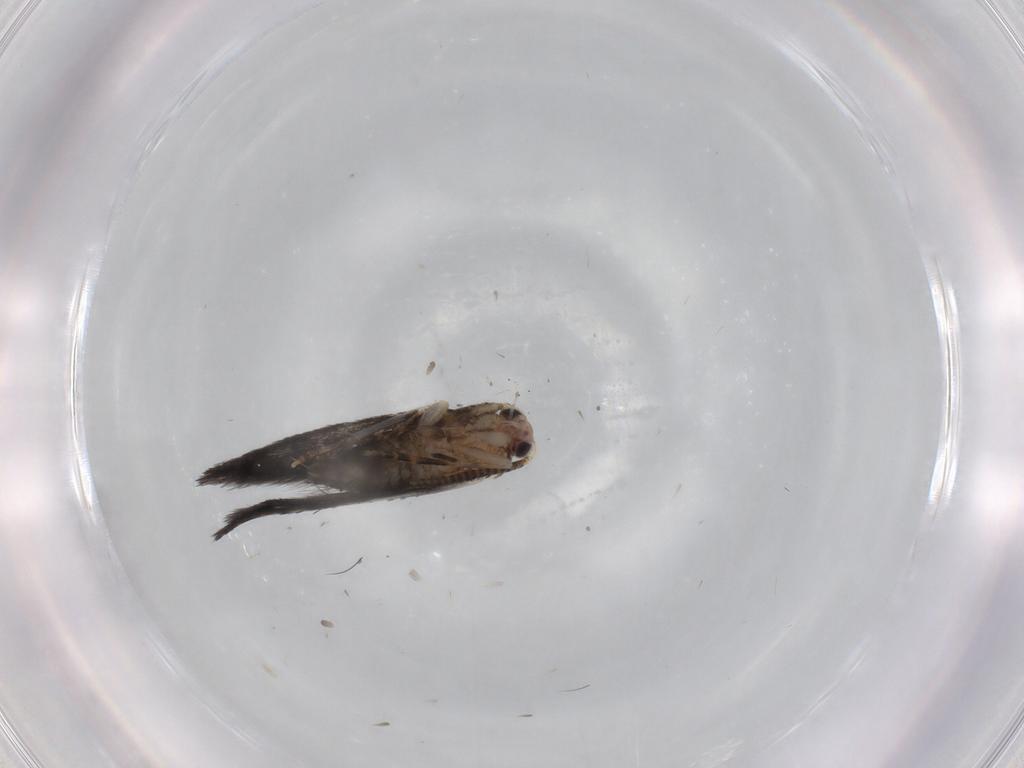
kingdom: Animalia
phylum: Arthropoda
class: Insecta
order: Lepidoptera
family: Tineidae
